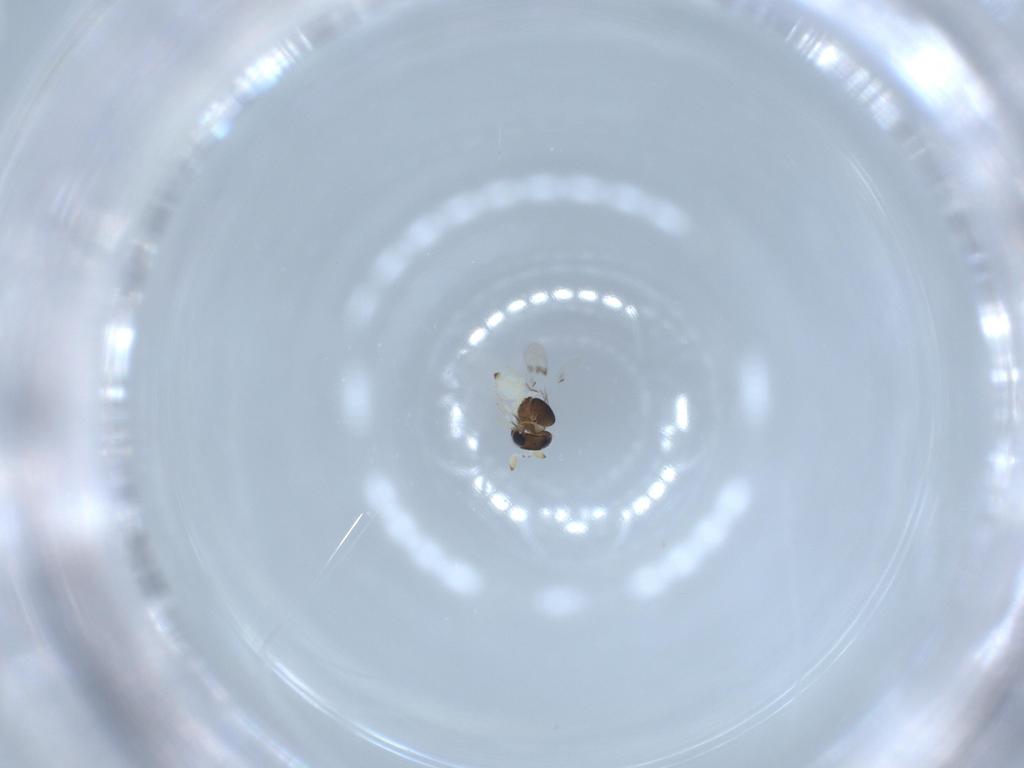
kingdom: Animalia
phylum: Arthropoda
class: Insecta
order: Hymenoptera
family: Scelionidae
